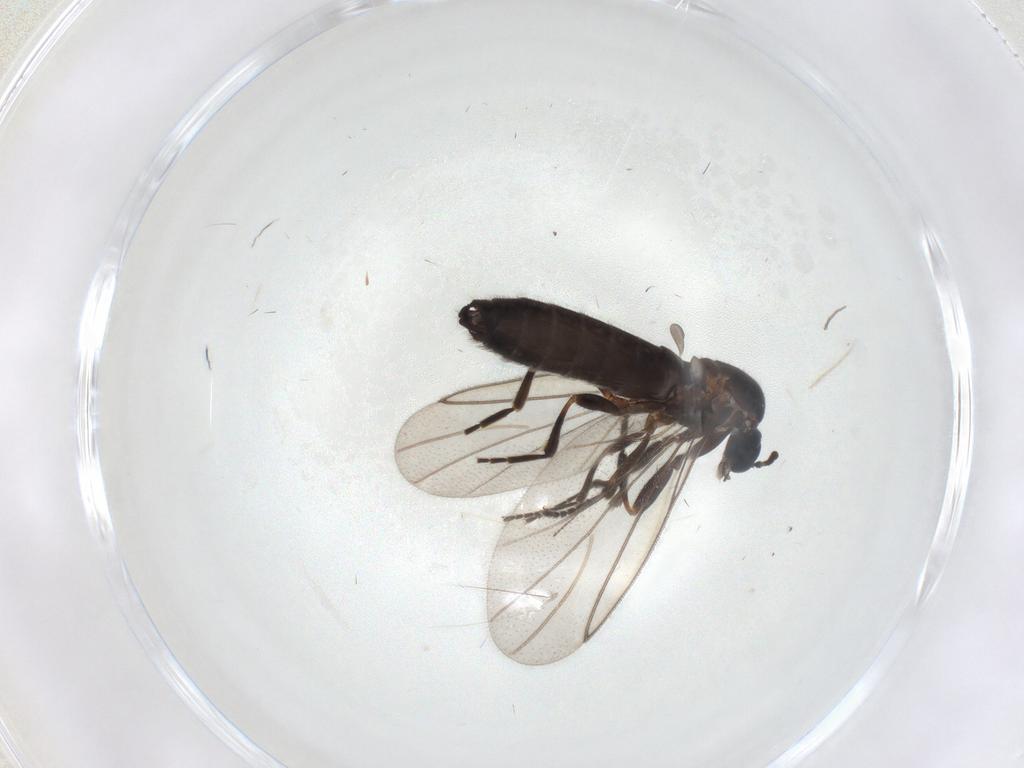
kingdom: Animalia
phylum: Arthropoda
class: Insecta
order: Diptera
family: Scatopsidae
